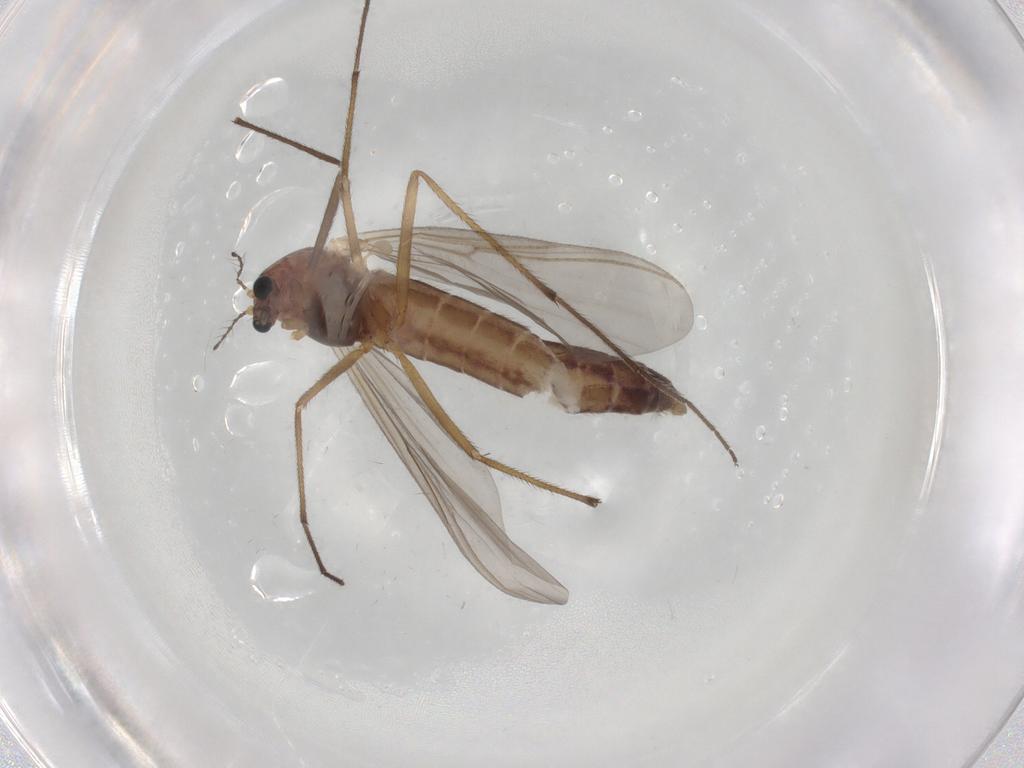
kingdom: Animalia
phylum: Arthropoda
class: Insecta
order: Diptera
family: Chironomidae
